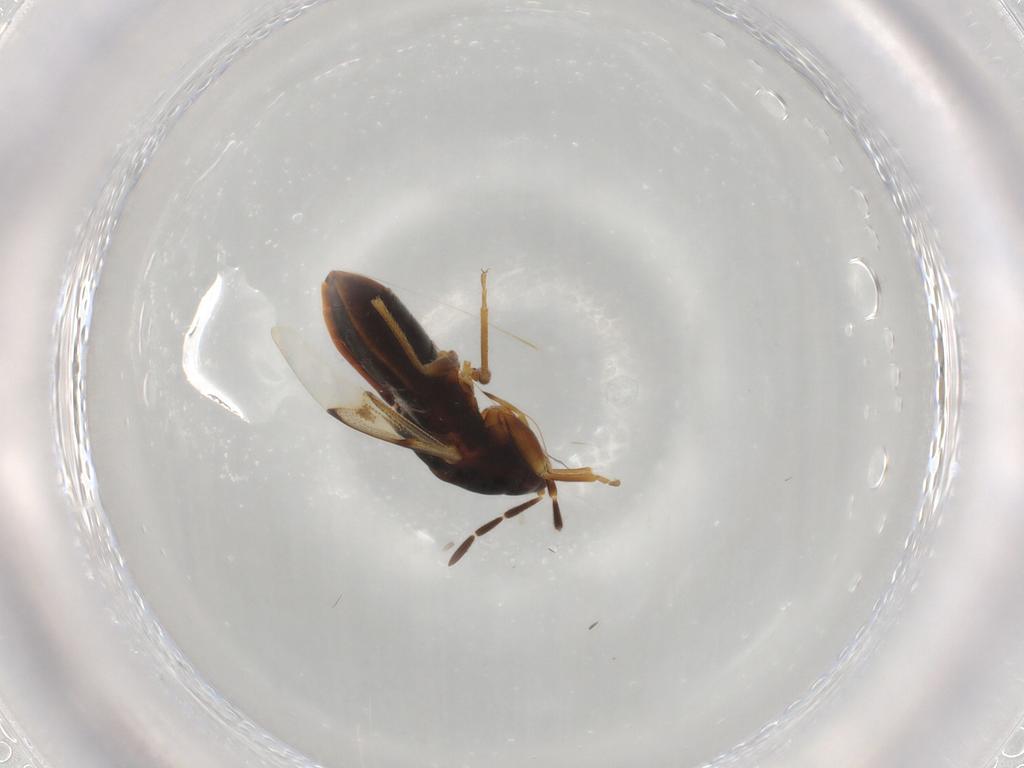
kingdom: Animalia
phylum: Arthropoda
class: Insecta
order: Hemiptera
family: Rhyparochromidae
